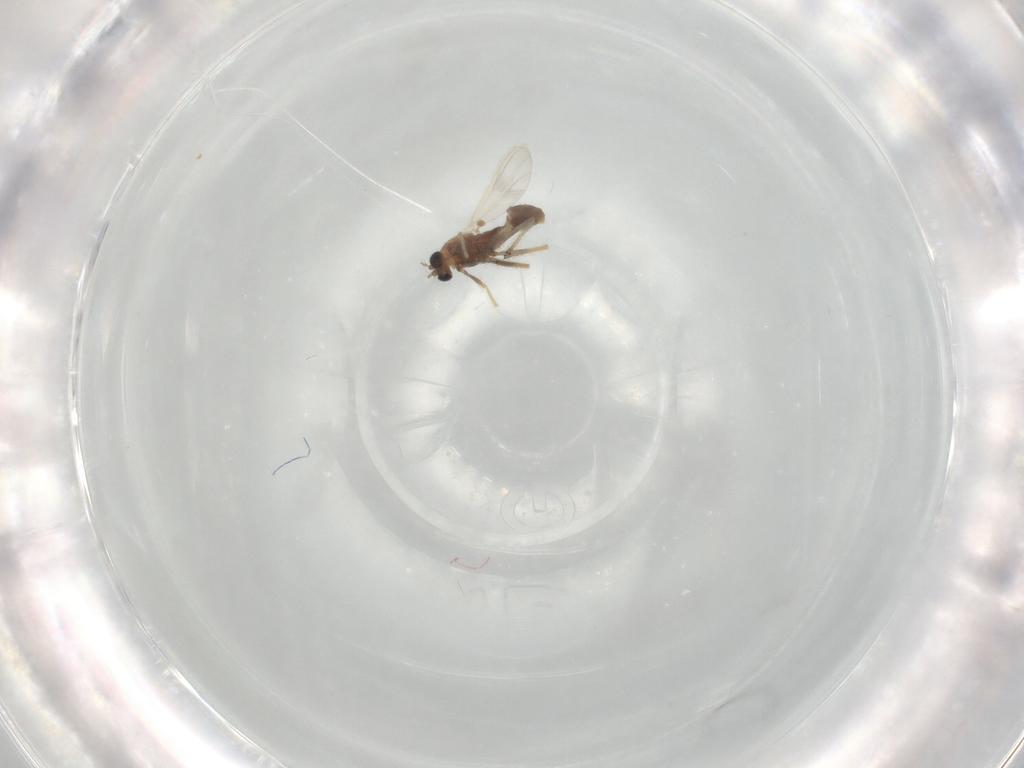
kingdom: Animalia
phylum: Arthropoda
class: Insecta
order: Diptera
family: Chironomidae
